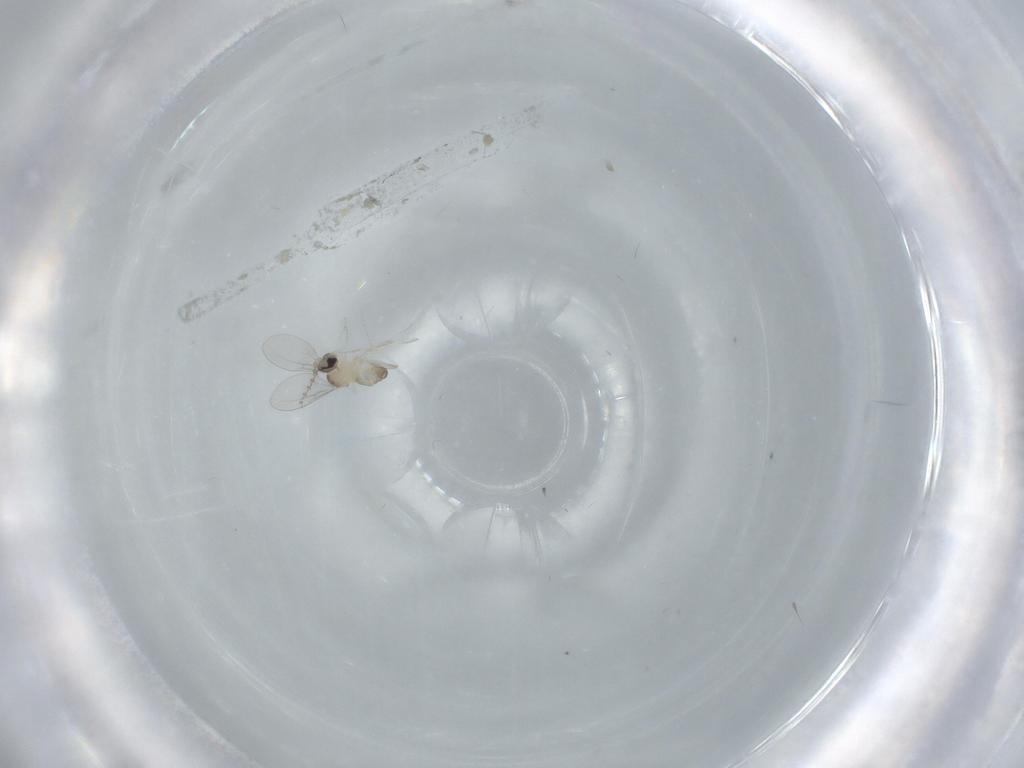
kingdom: Animalia
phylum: Arthropoda
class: Insecta
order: Diptera
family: Cecidomyiidae
